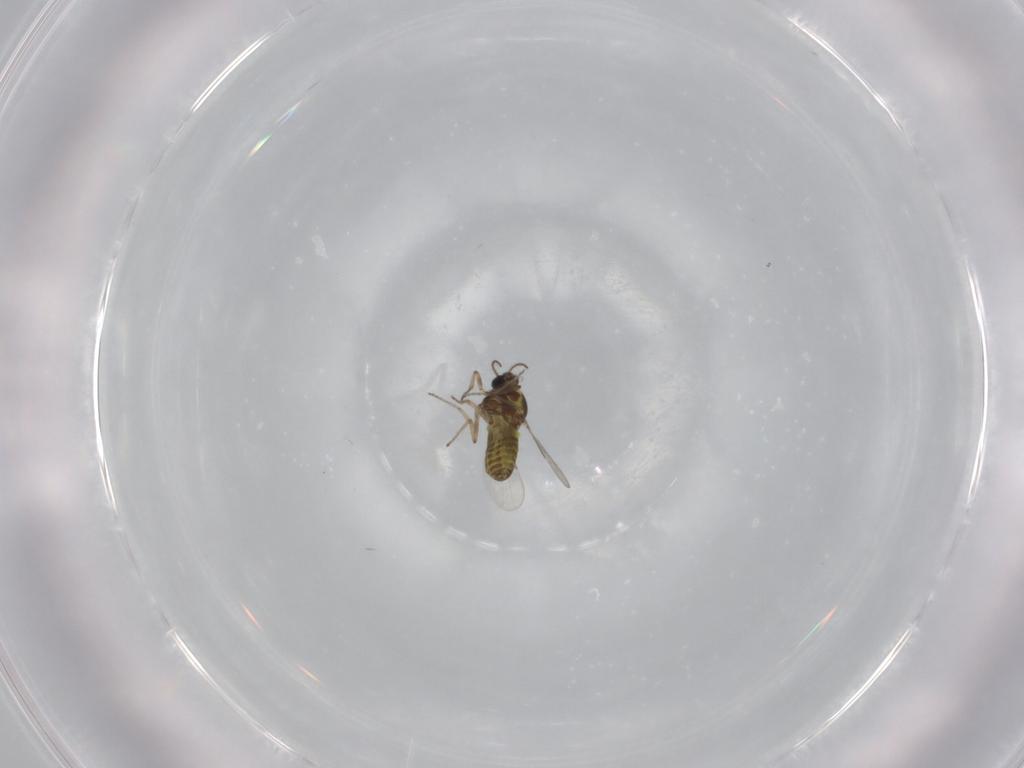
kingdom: Animalia
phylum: Arthropoda
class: Insecta
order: Diptera
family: Ceratopogonidae
